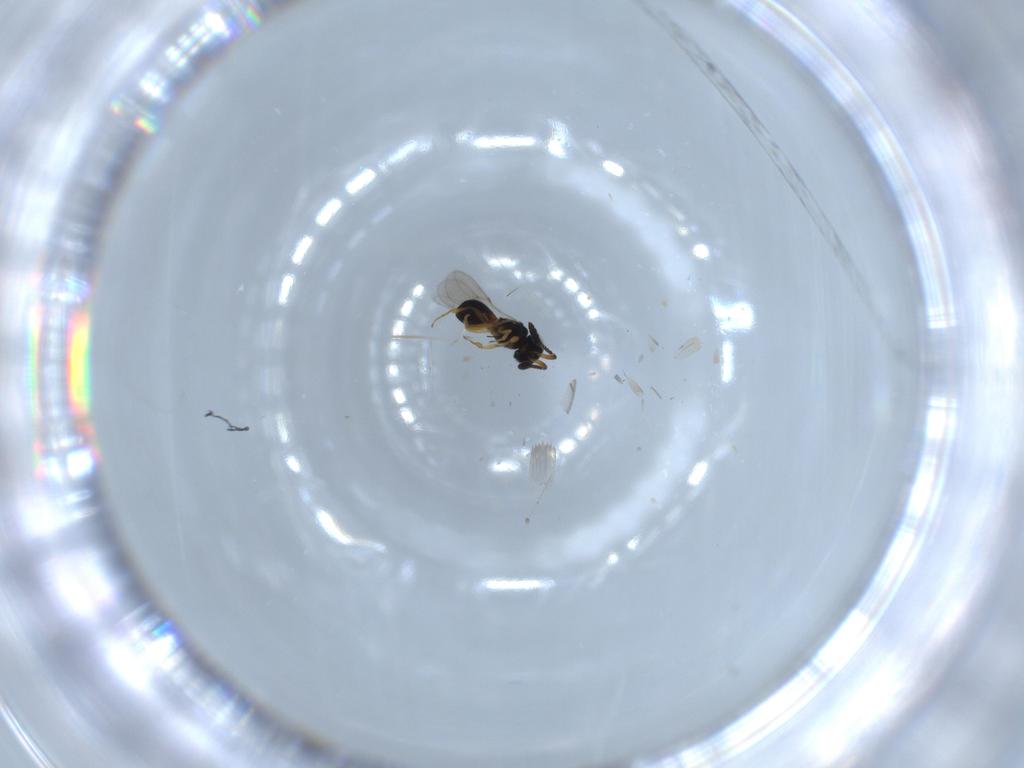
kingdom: Animalia
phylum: Arthropoda
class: Insecta
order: Hymenoptera
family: Scelionidae
